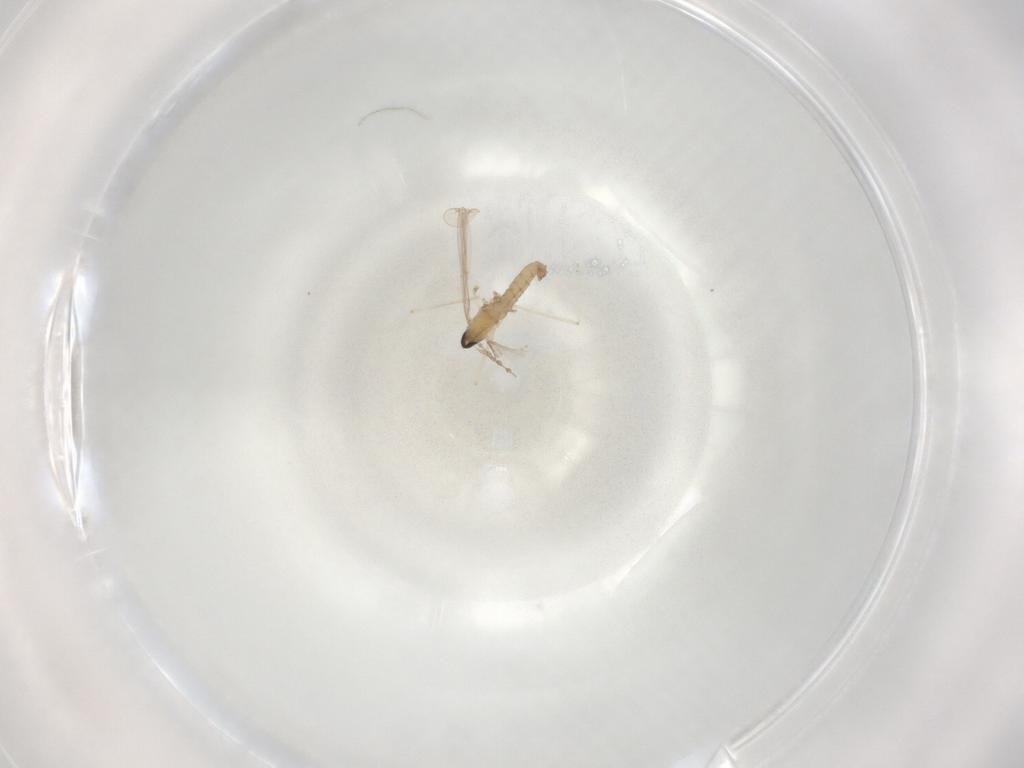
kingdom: Animalia
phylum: Arthropoda
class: Insecta
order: Diptera
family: Cecidomyiidae
